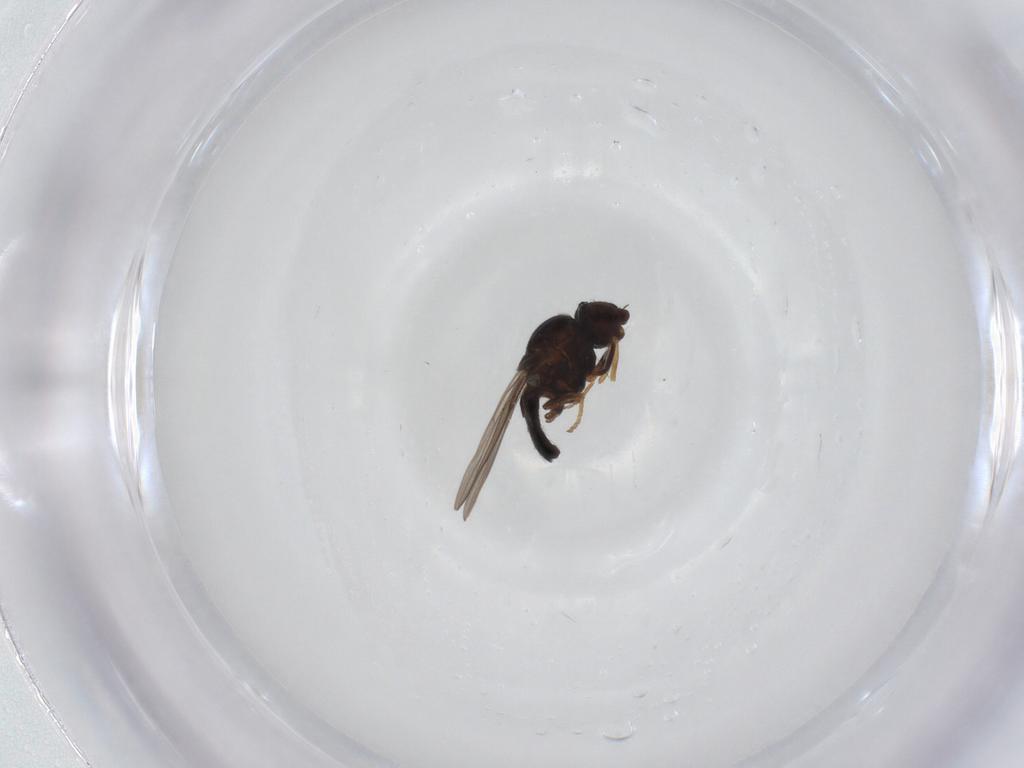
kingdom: Animalia
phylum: Arthropoda
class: Insecta
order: Diptera
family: Chloropidae
